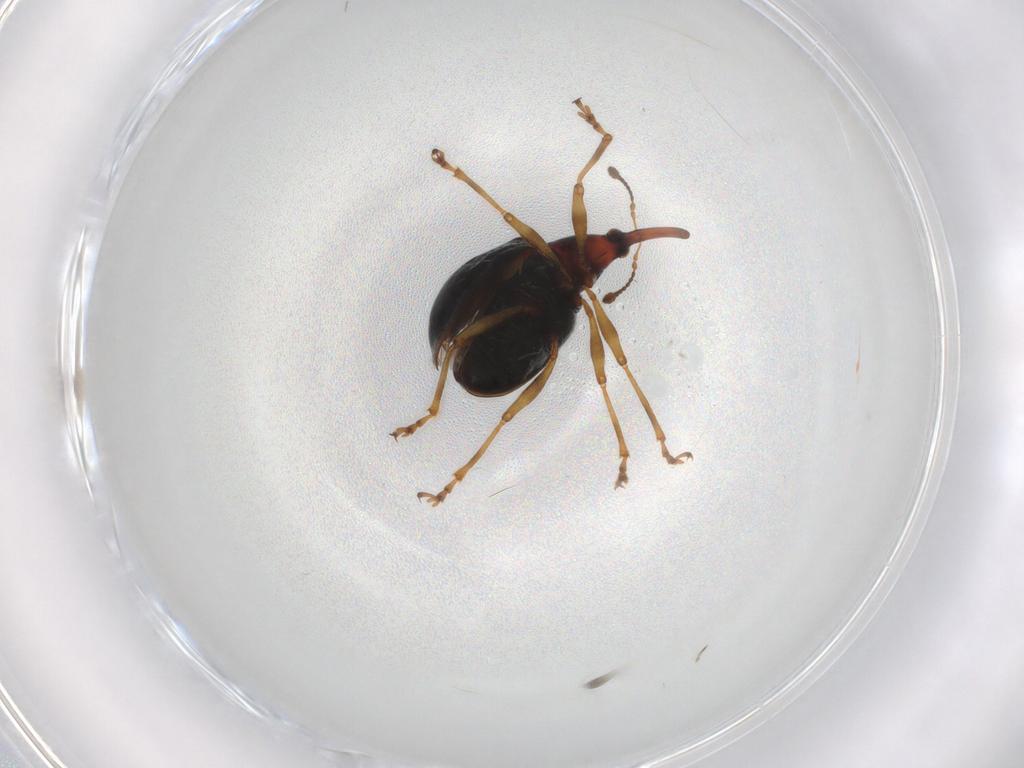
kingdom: Animalia
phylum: Arthropoda
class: Insecta
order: Coleoptera
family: Brentidae
